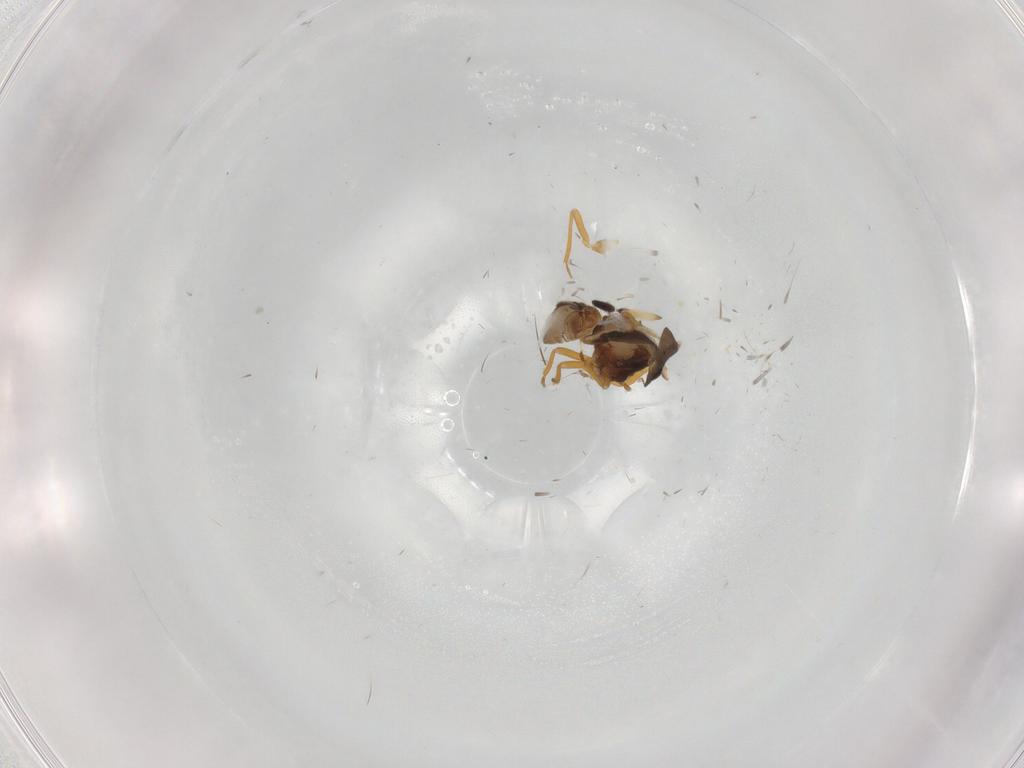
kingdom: Animalia
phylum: Arthropoda
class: Insecta
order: Hemiptera
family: Schizopteridae
